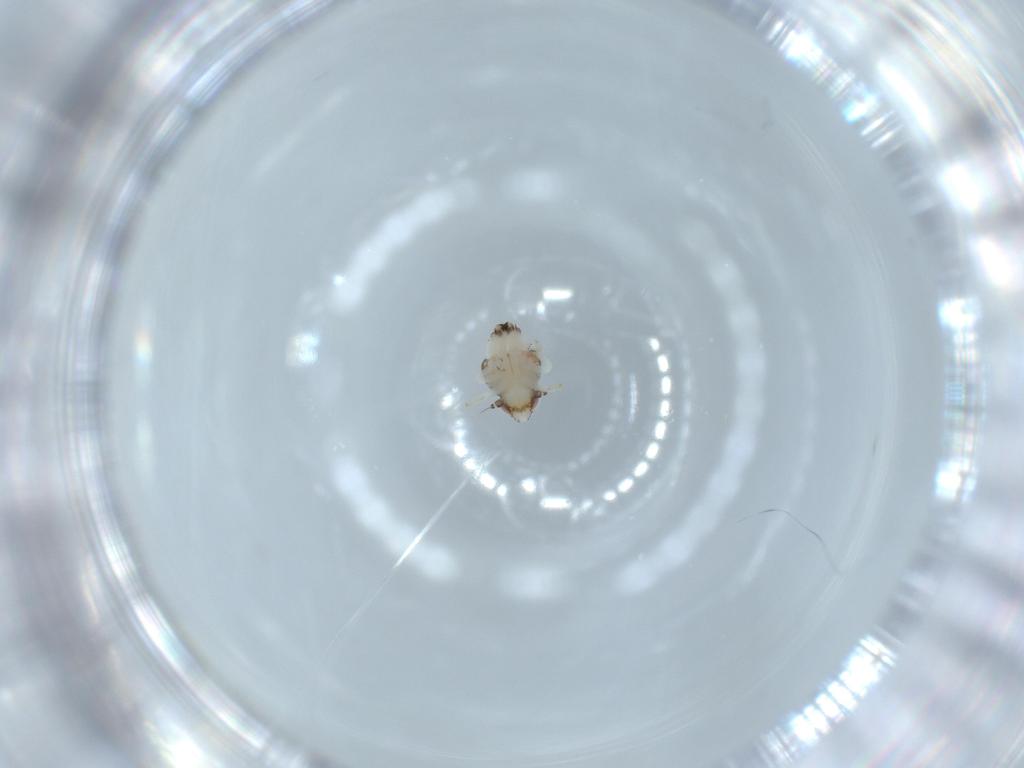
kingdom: Animalia
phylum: Arthropoda
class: Insecta
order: Hemiptera
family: Nogodinidae
